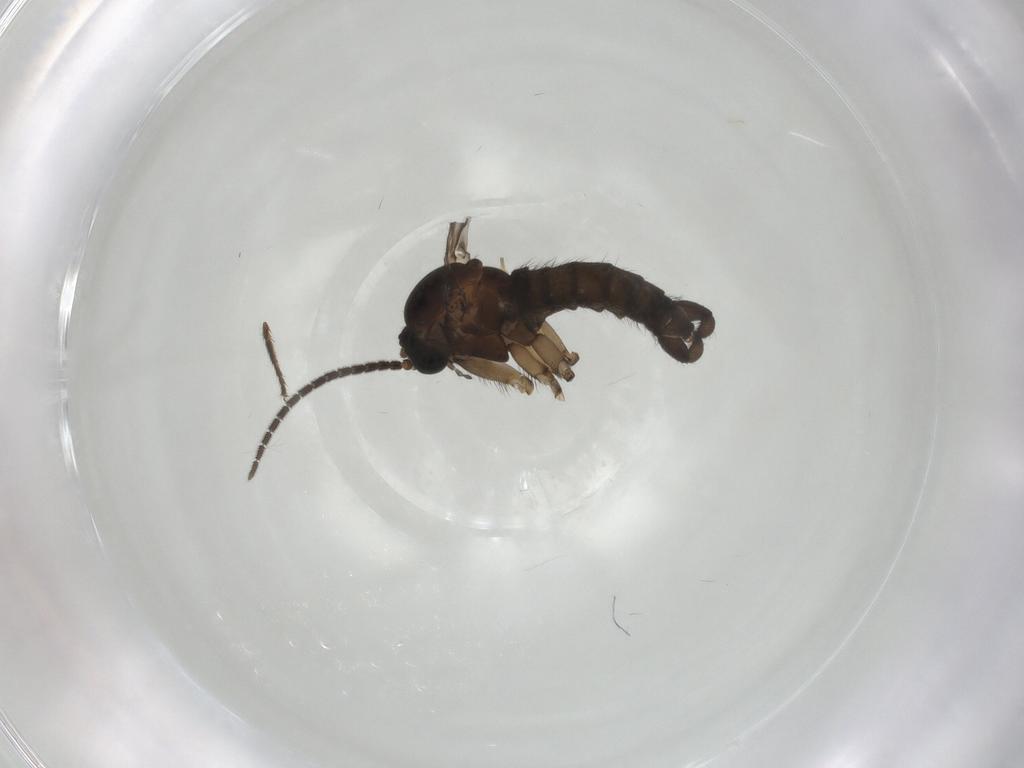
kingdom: Animalia
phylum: Arthropoda
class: Insecta
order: Diptera
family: Sciaridae
